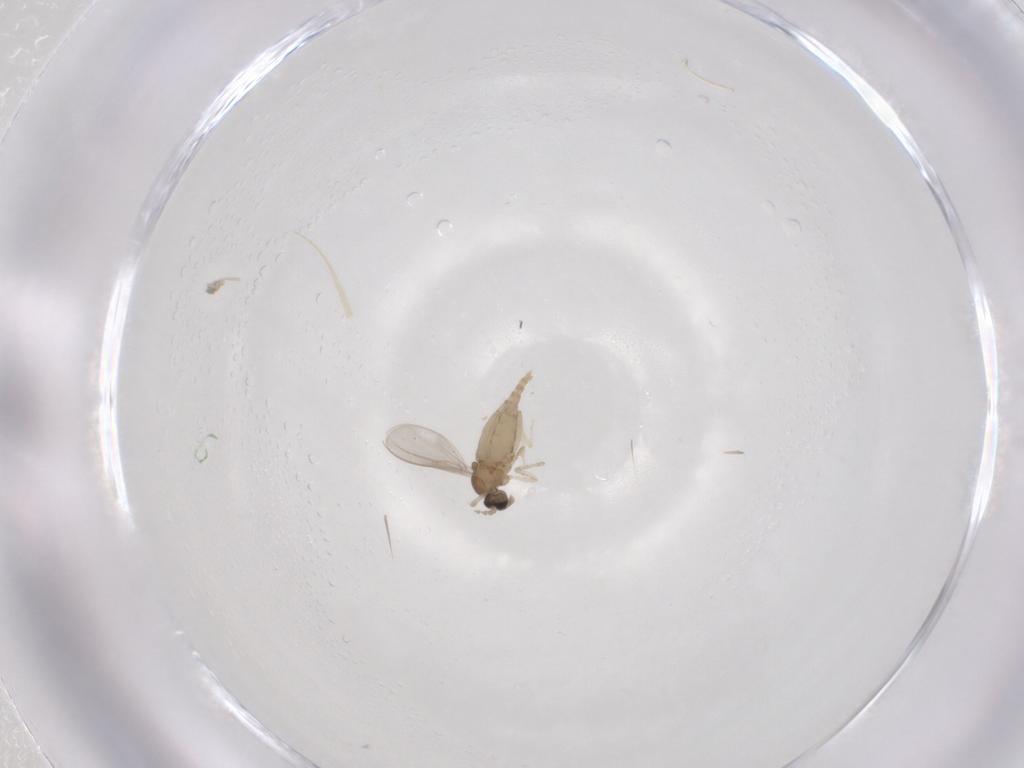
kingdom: Animalia
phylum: Arthropoda
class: Insecta
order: Diptera
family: Cecidomyiidae
